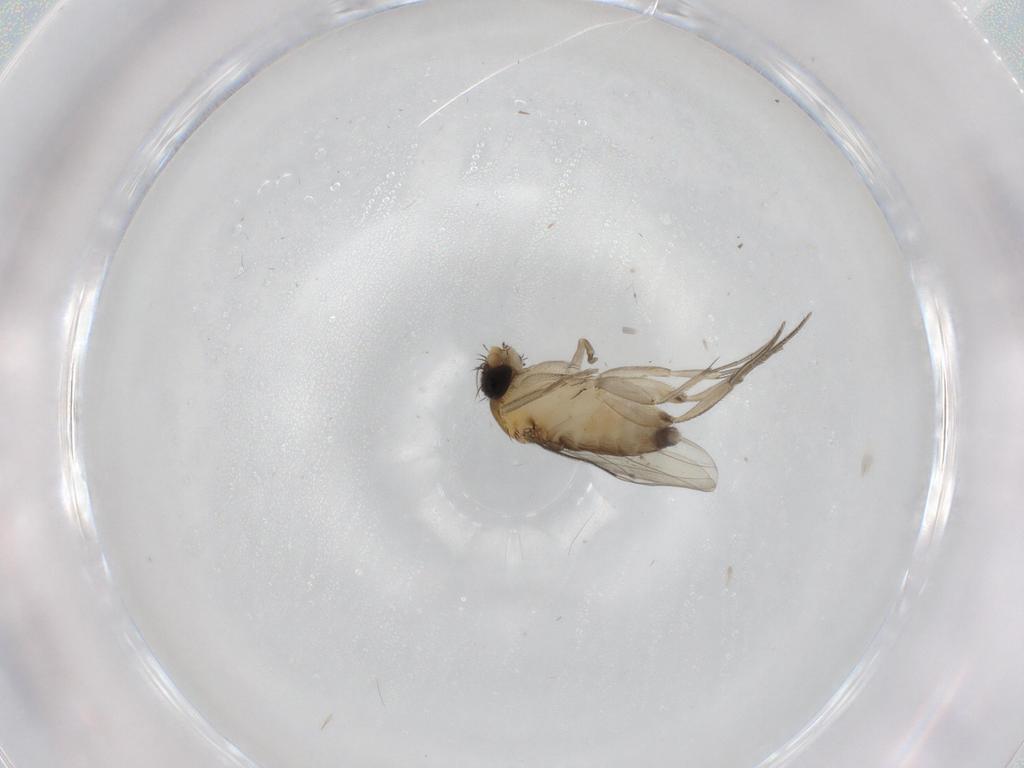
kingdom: Animalia
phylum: Arthropoda
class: Insecta
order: Diptera
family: Phoridae
